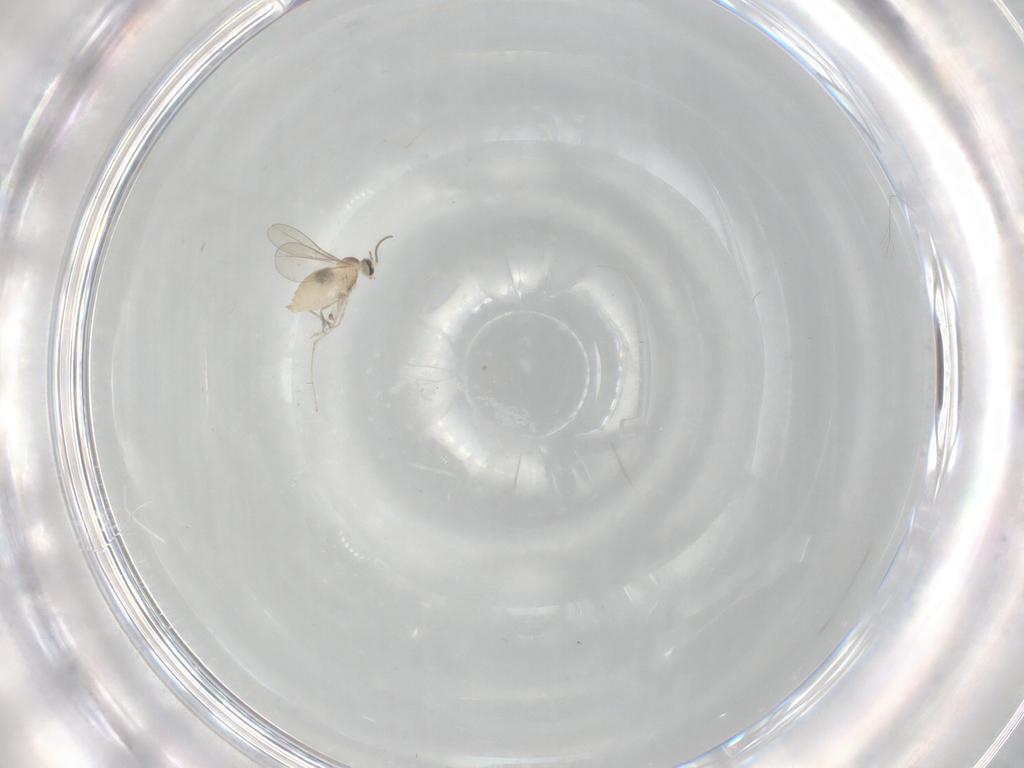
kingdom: Animalia
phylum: Arthropoda
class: Insecta
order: Diptera
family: Cecidomyiidae
